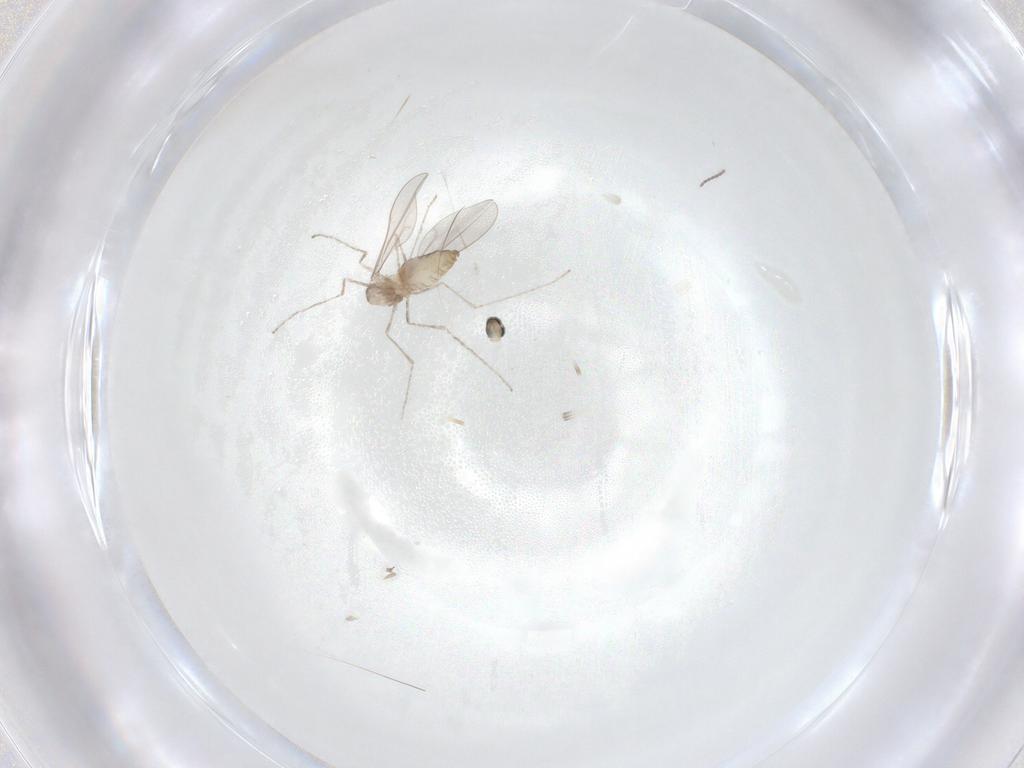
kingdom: Animalia
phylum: Arthropoda
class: Insecta
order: Diptera
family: Cecidomyiidae
